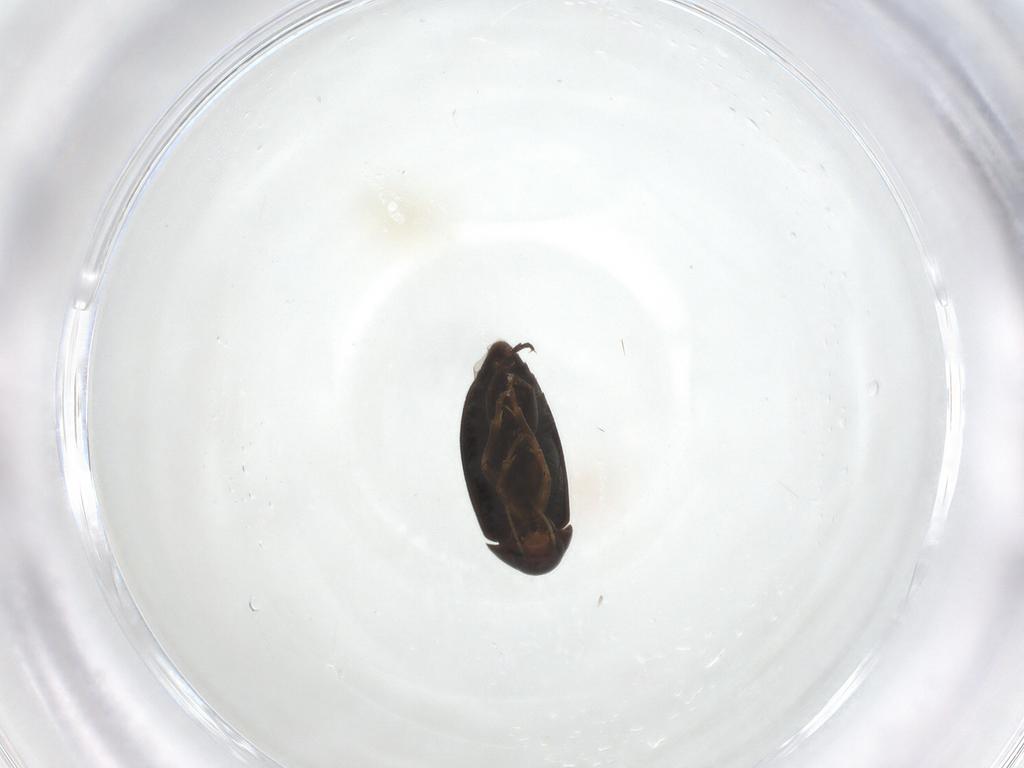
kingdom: Animalia
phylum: Arthropoda
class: Insecta
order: Coleoptera
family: Scraptiidae
